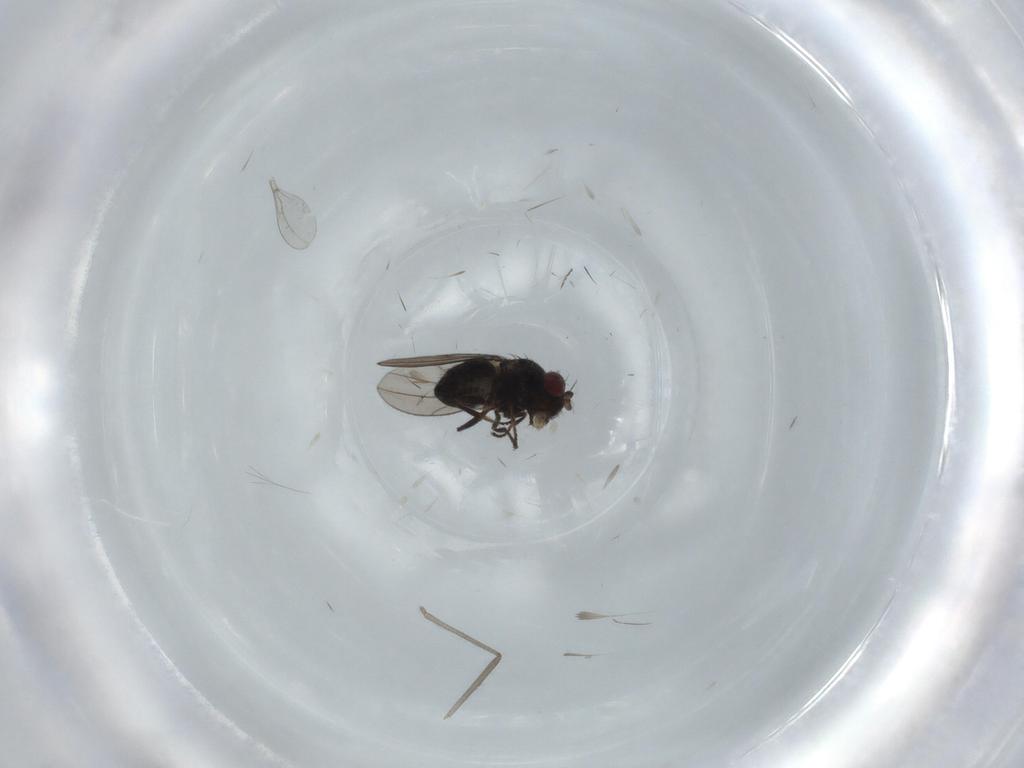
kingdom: Animalia
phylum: Arthropoda
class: Insecta
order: Diptera
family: Ephydridae
